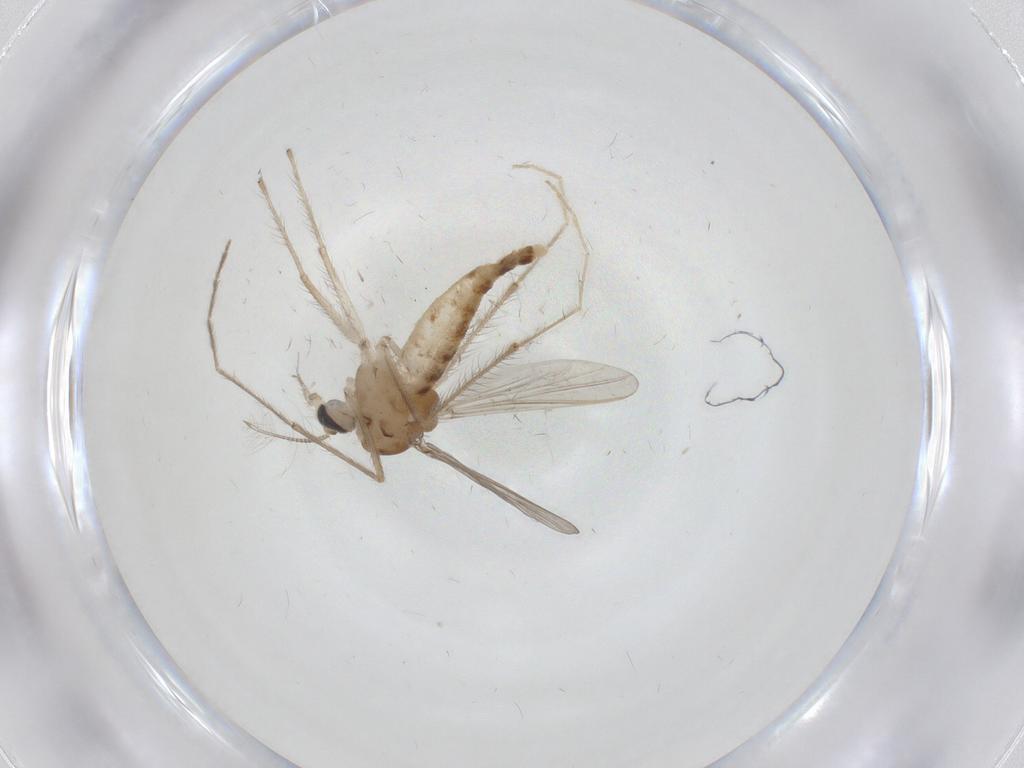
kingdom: Animalia
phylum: Arthropoda
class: Insecta
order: Diptera
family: Chironomidae
